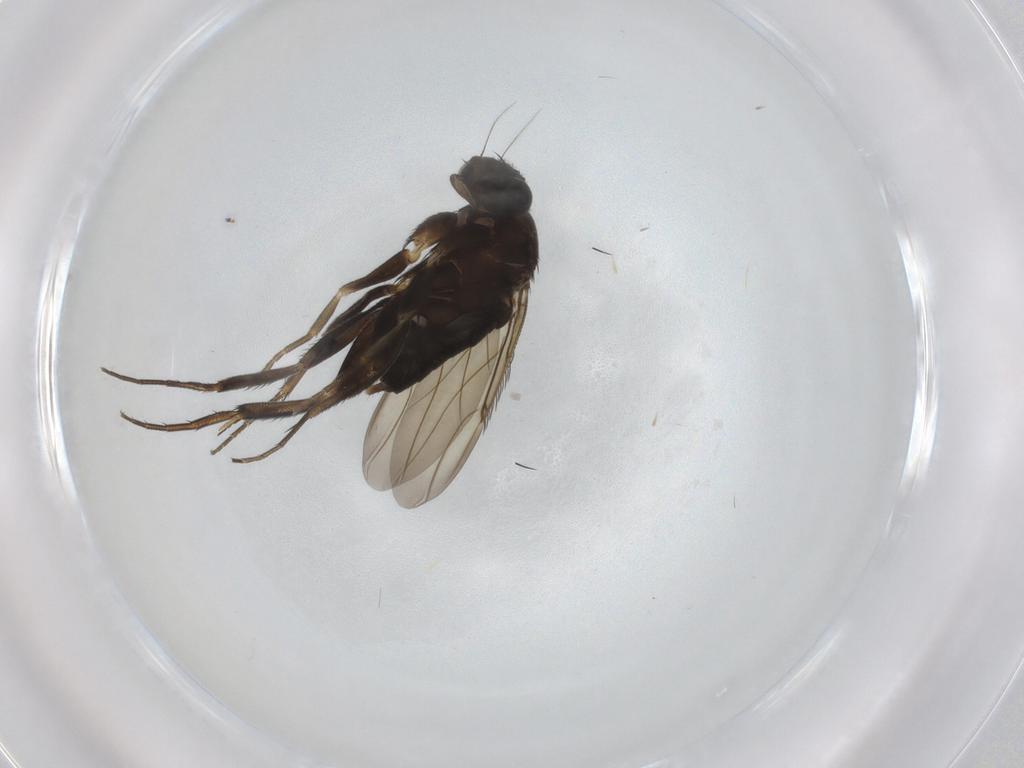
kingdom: Animalia
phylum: Arthropoda
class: Insecta
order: Diptera
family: Phoridae
